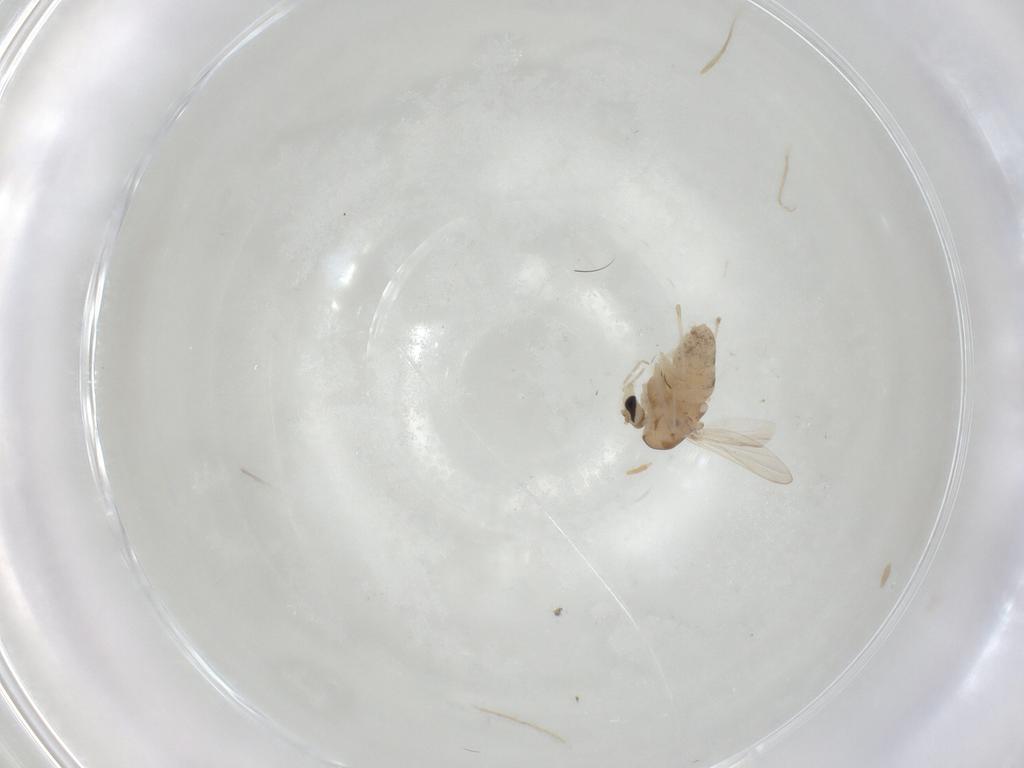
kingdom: Animalia
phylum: Arthropoda
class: Insecta
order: Diptera
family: Chironomidae
